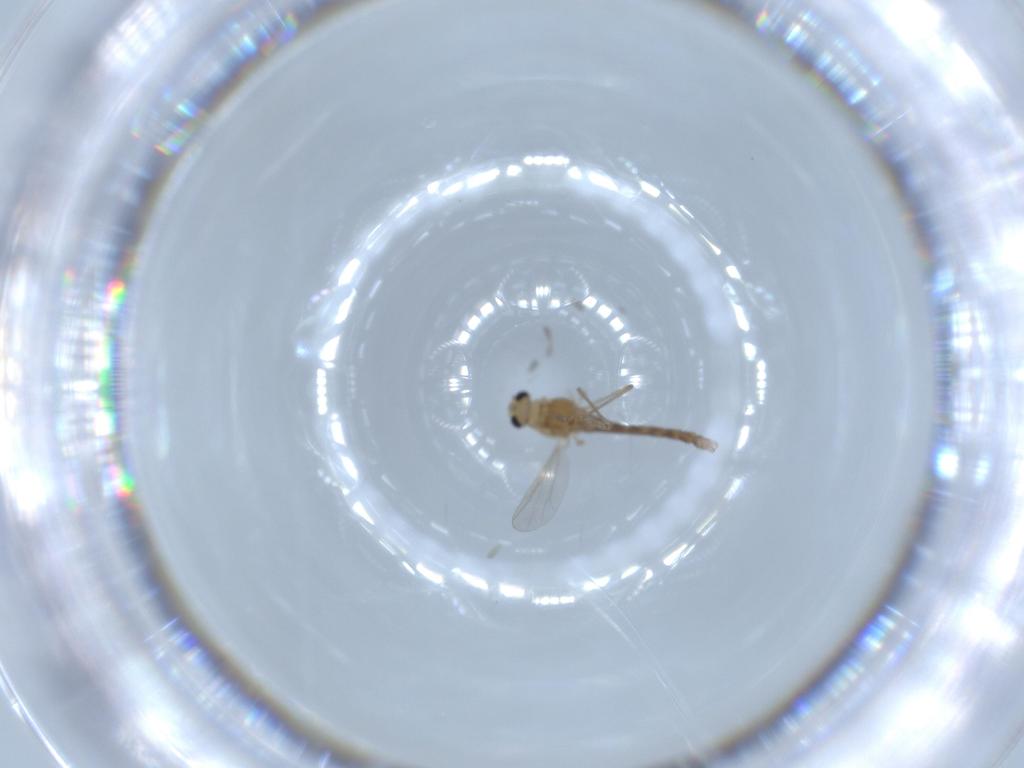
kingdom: Animalia
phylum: Arthropoda
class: Insecta
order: Diptera
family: Chironomidae
